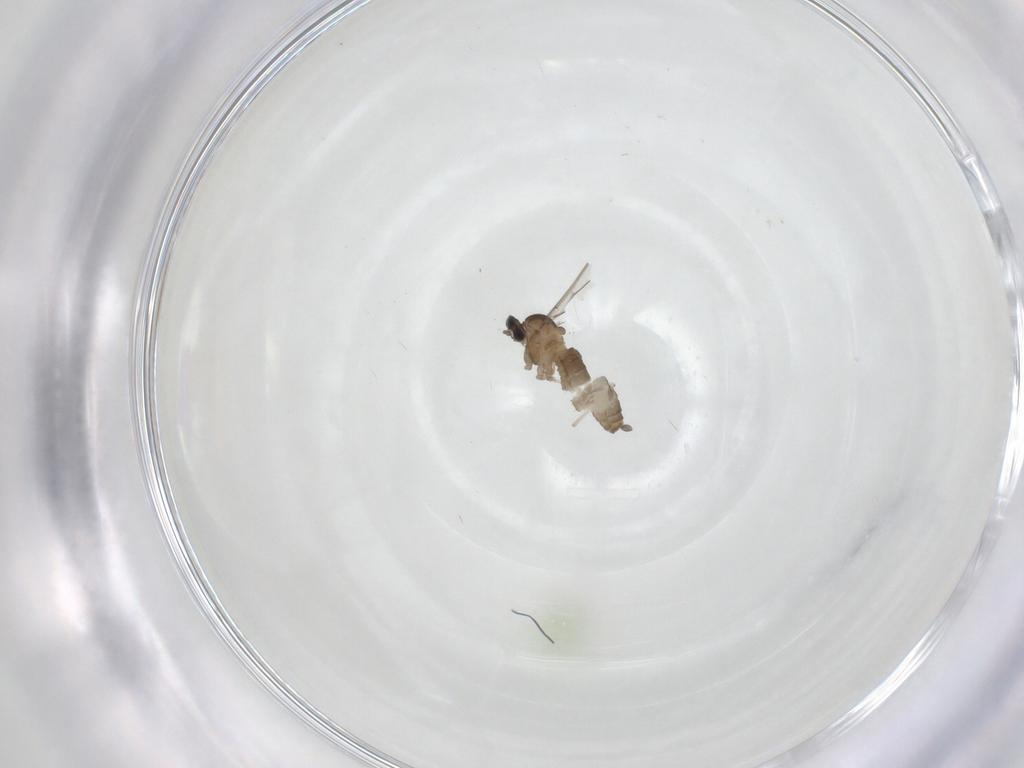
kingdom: Animalia
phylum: Arthropoda
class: Insecta
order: Diptera
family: Cecidomyiidae
